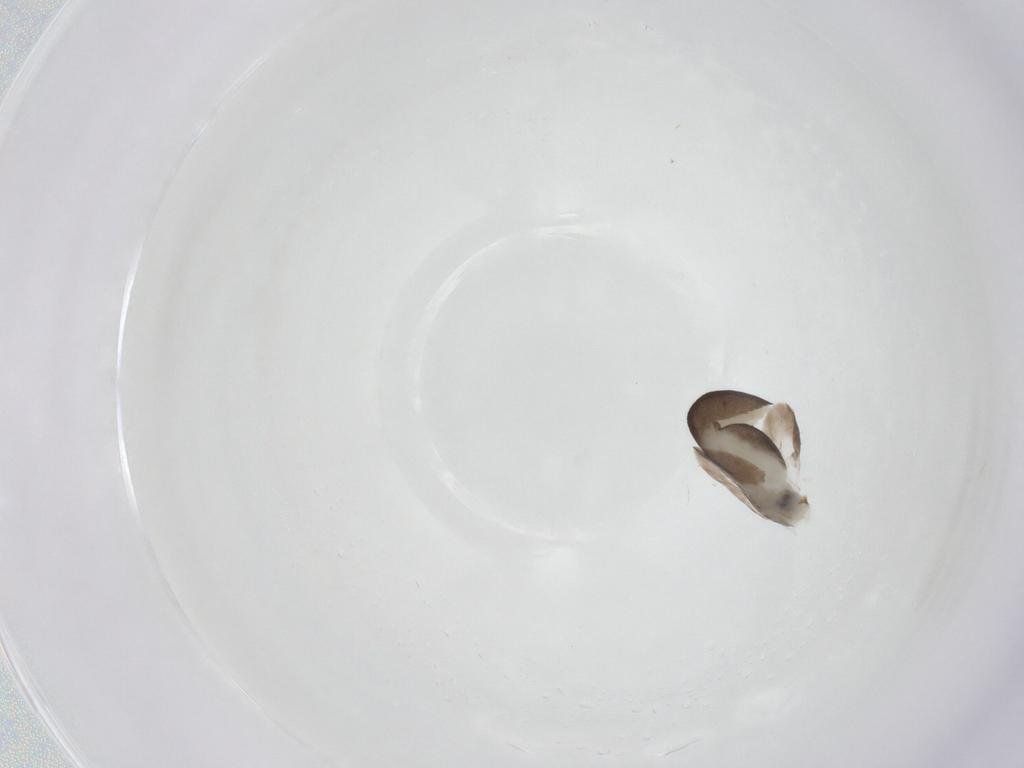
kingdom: Animalia
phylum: Arthropoda
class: Insecta
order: Hymenoptera
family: Dryinidae
